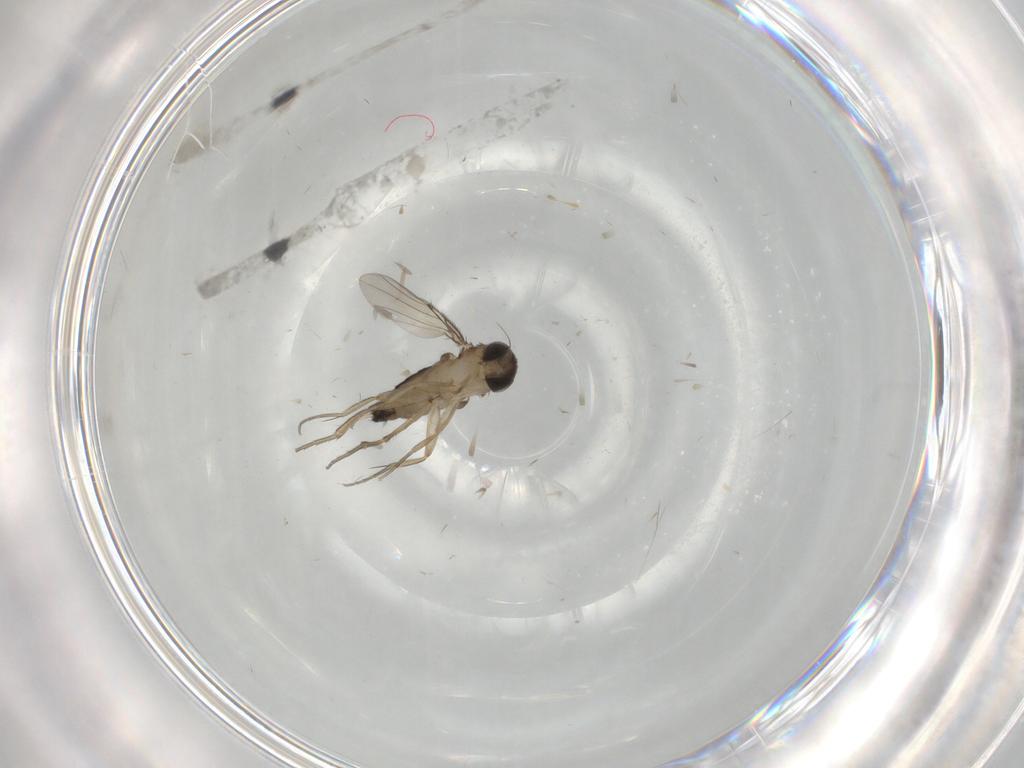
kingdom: Animalia
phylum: Arthropoda
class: Insecta
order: Diptera
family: Phoridae
